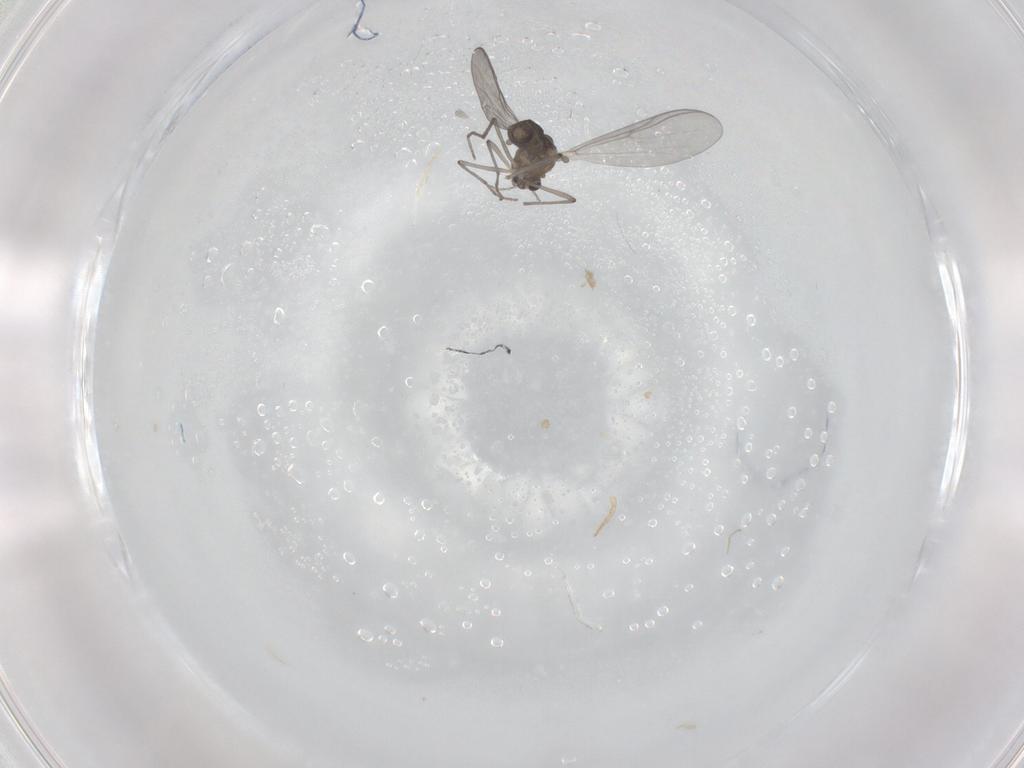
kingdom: Animalia
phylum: Arthropoda
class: Insecta
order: Diptera
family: Chironomidae
